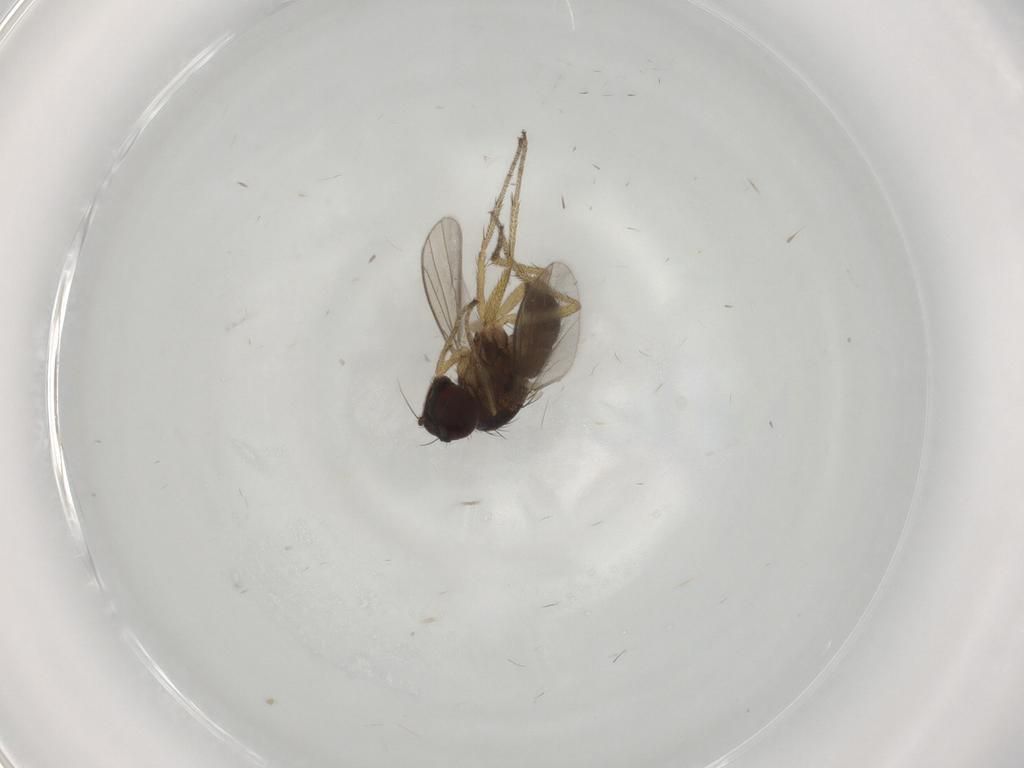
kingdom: Animalia
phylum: Arthropoda
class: Insecta
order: Diptera
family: Dolichopodidae
